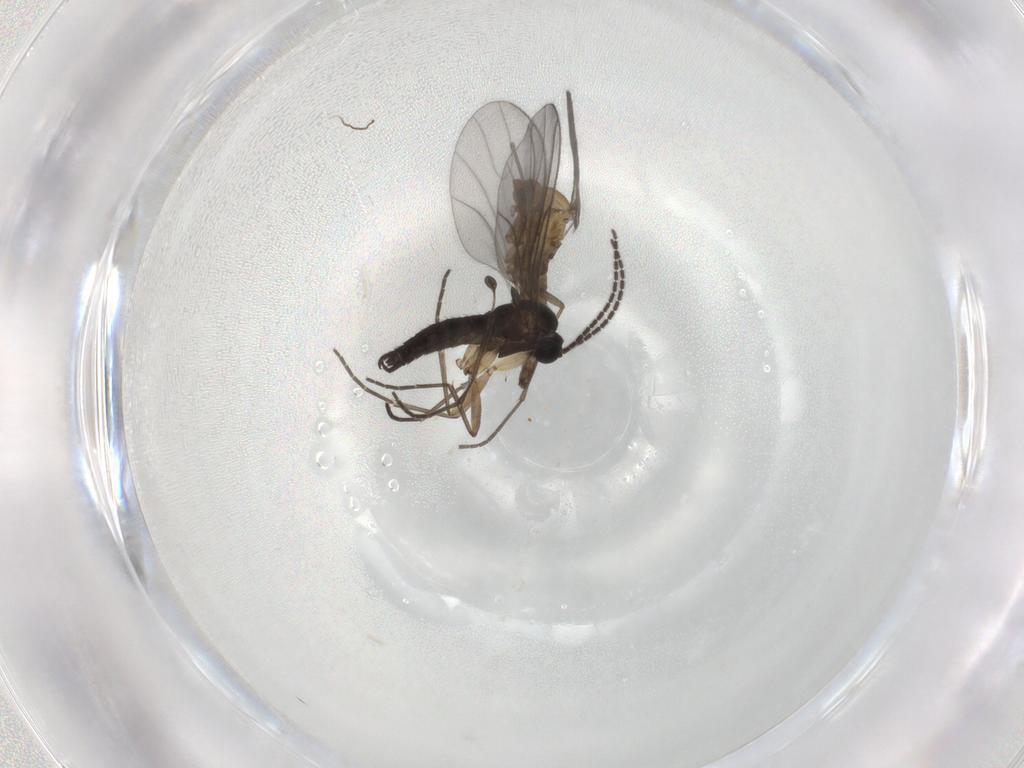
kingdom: Animalia
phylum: Arthropoda
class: Insecta
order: Diptera
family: Sciaridae
